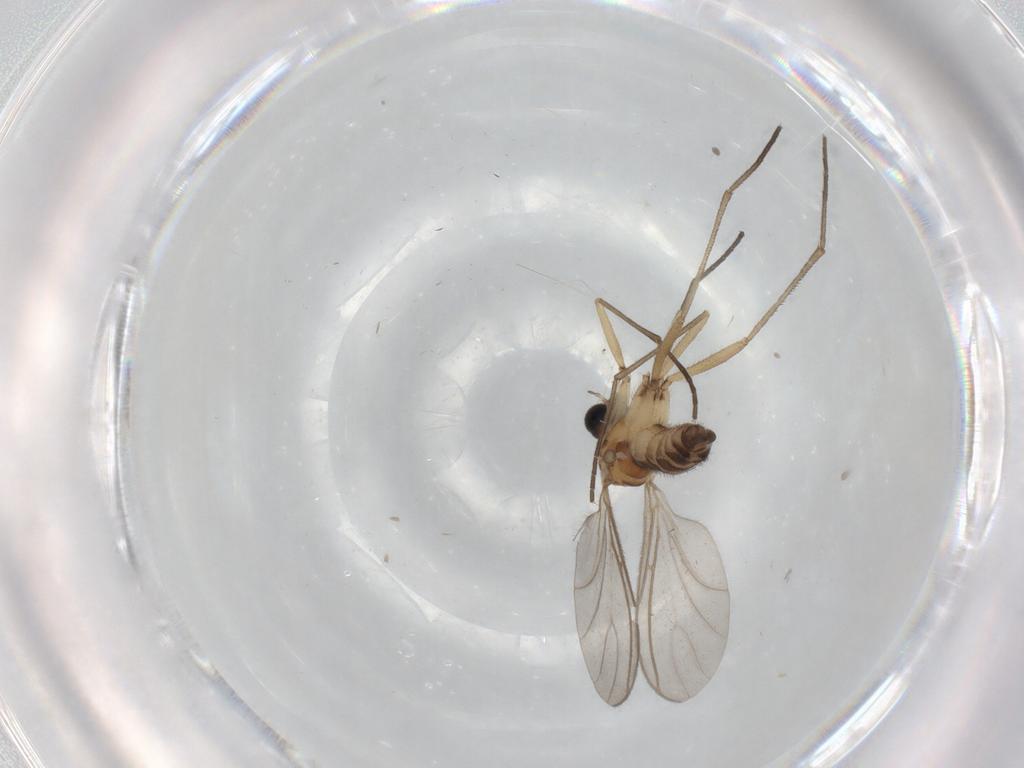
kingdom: Animalia
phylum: Arthropoda
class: Insecta
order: Diptera
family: Sciaridae
